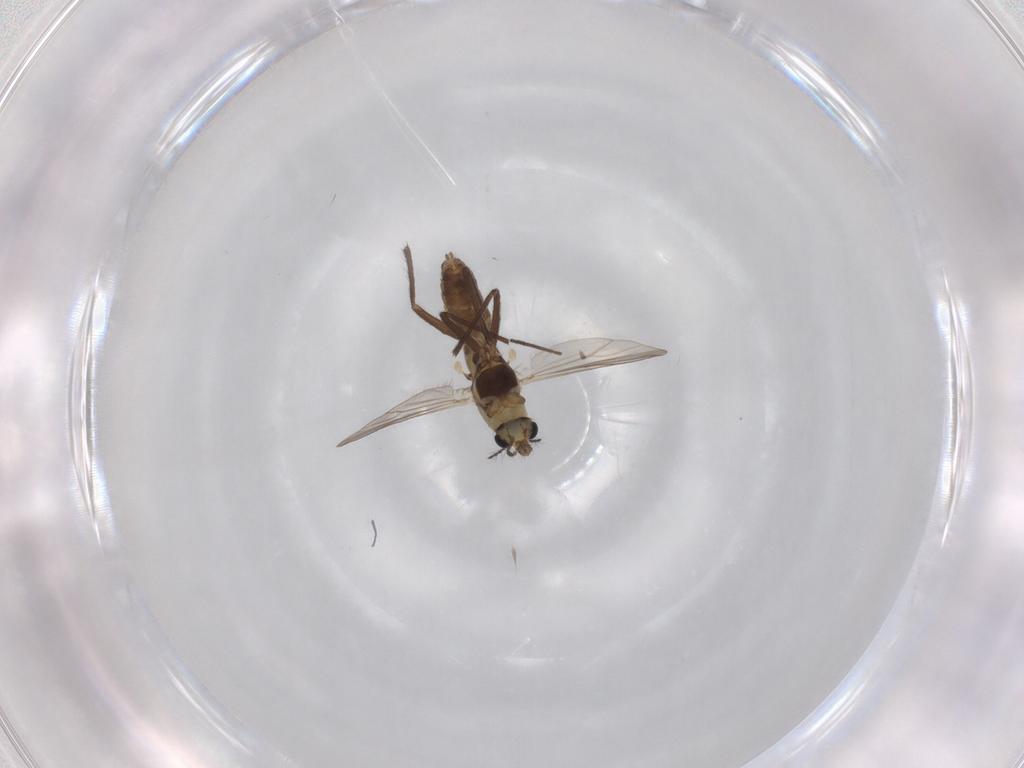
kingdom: Animalia
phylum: Arthropoda
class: Insecta
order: Diptera
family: Chironomidae
